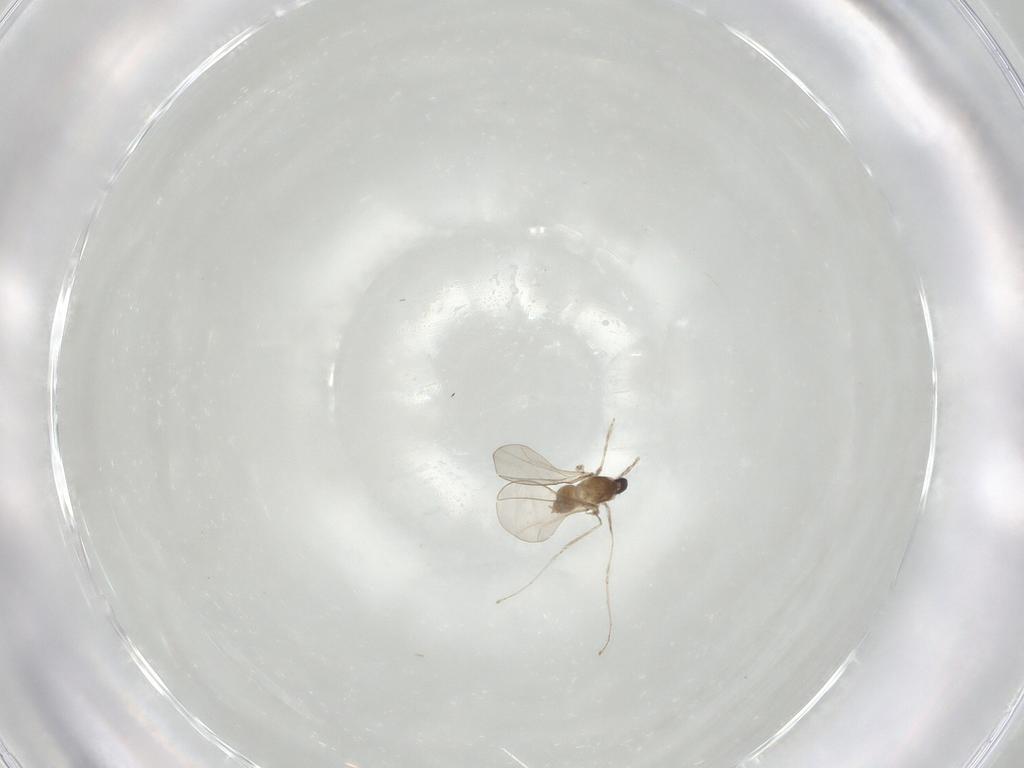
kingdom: Animalia
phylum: Arthropoda
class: Insecta
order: Diptera
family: Cecidomyiidae
